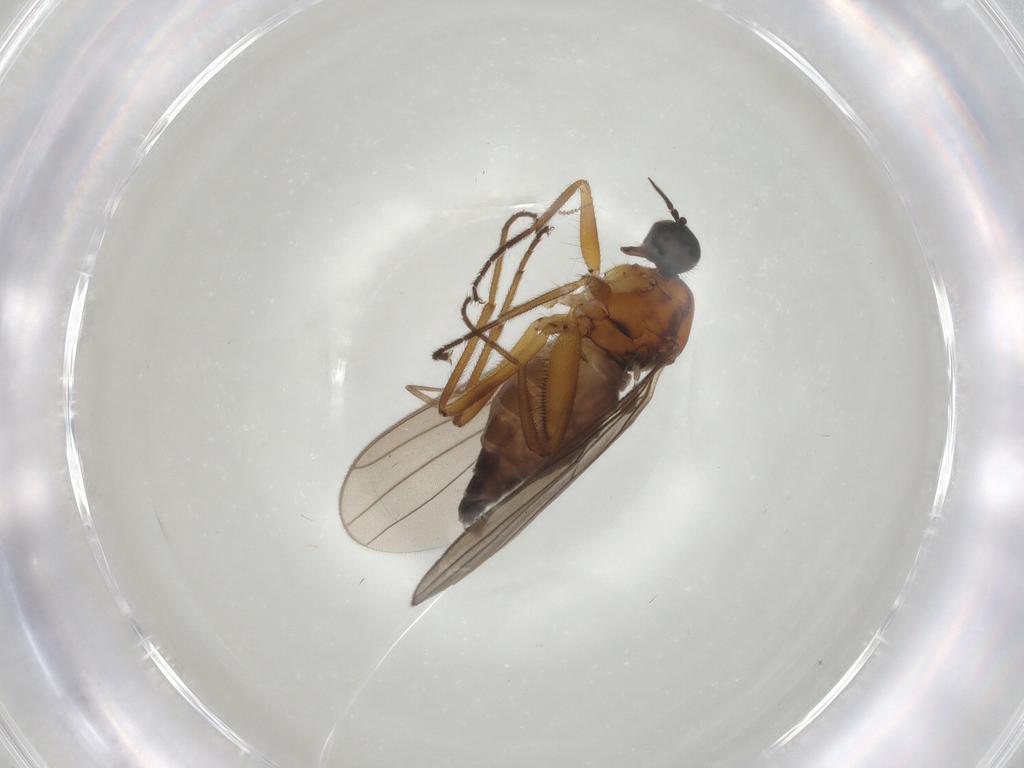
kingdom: Animalia
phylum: Arthropoda
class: Insecta
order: Diptera
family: Hybotidae
